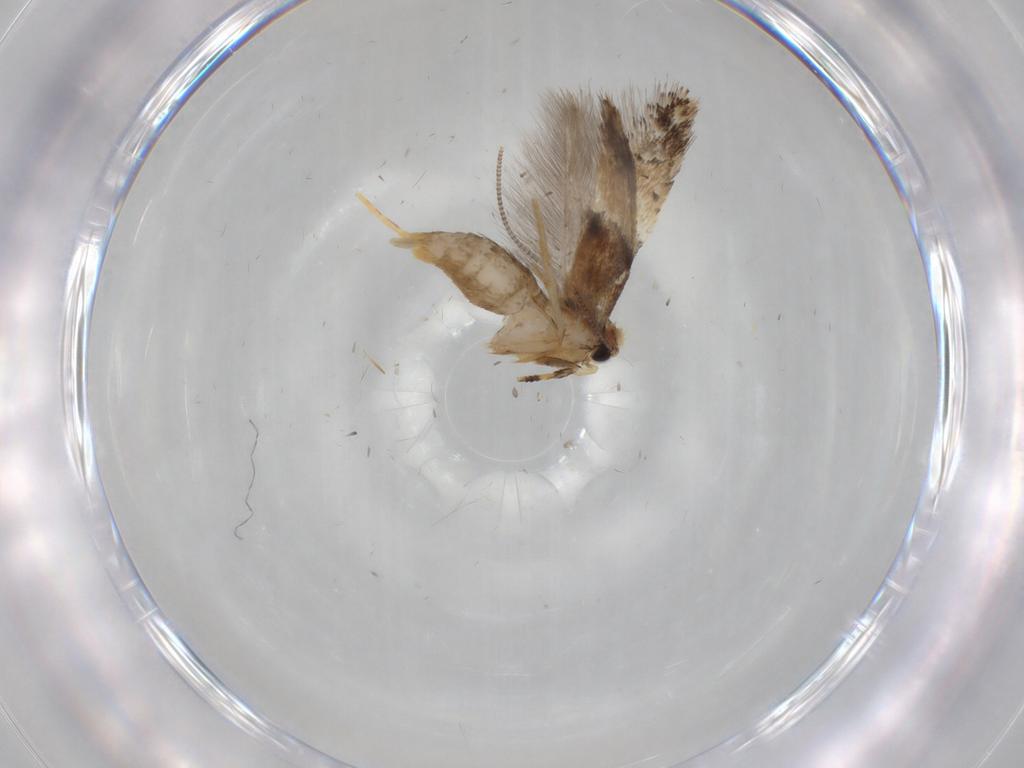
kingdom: Animalia
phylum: Arthropoda
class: Insecta
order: Lepidoptera
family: Tineidae
